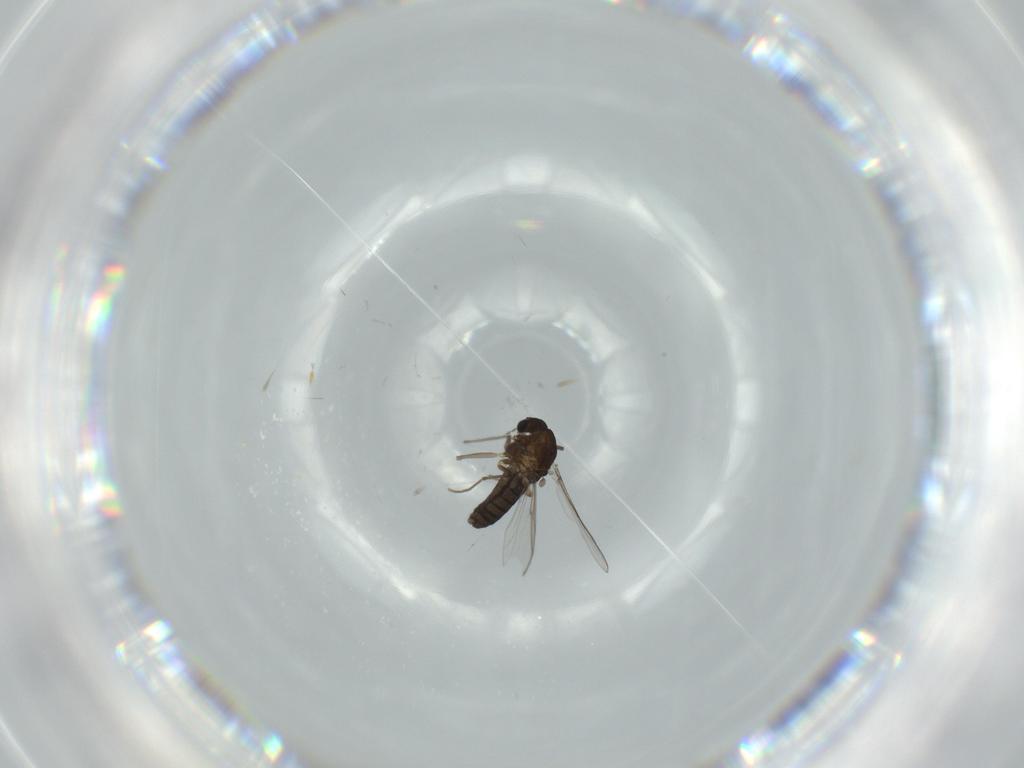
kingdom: Animalia
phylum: Arthropoda
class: Insecta
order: Diptera
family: Chironomidae
